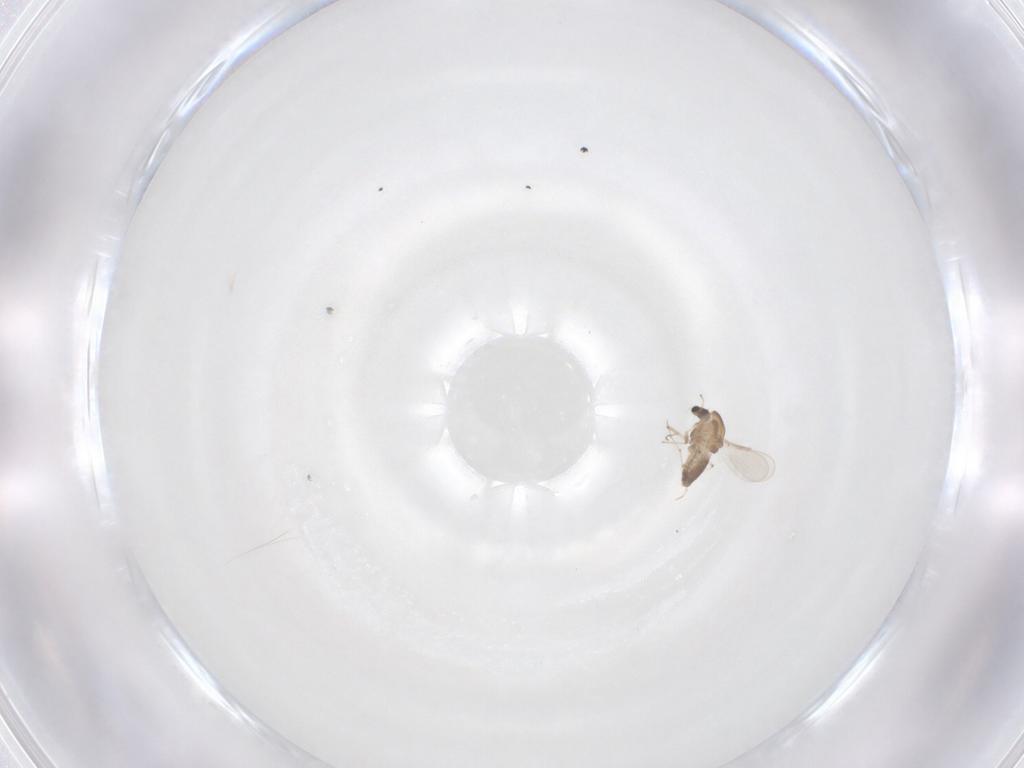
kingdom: Animalia
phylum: Arthropoda
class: Insecta
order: Diptera
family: Chironomidae
